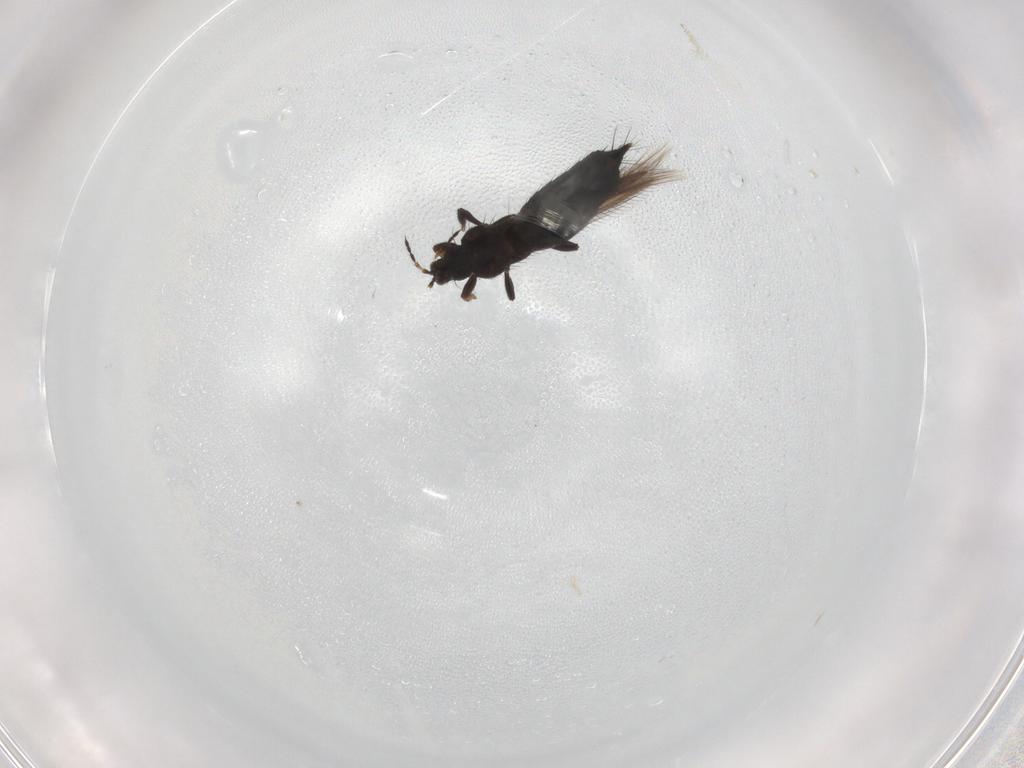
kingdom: Animalia
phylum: Arthropoda
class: Insecta
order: Thysanoptera
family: Thripidae
